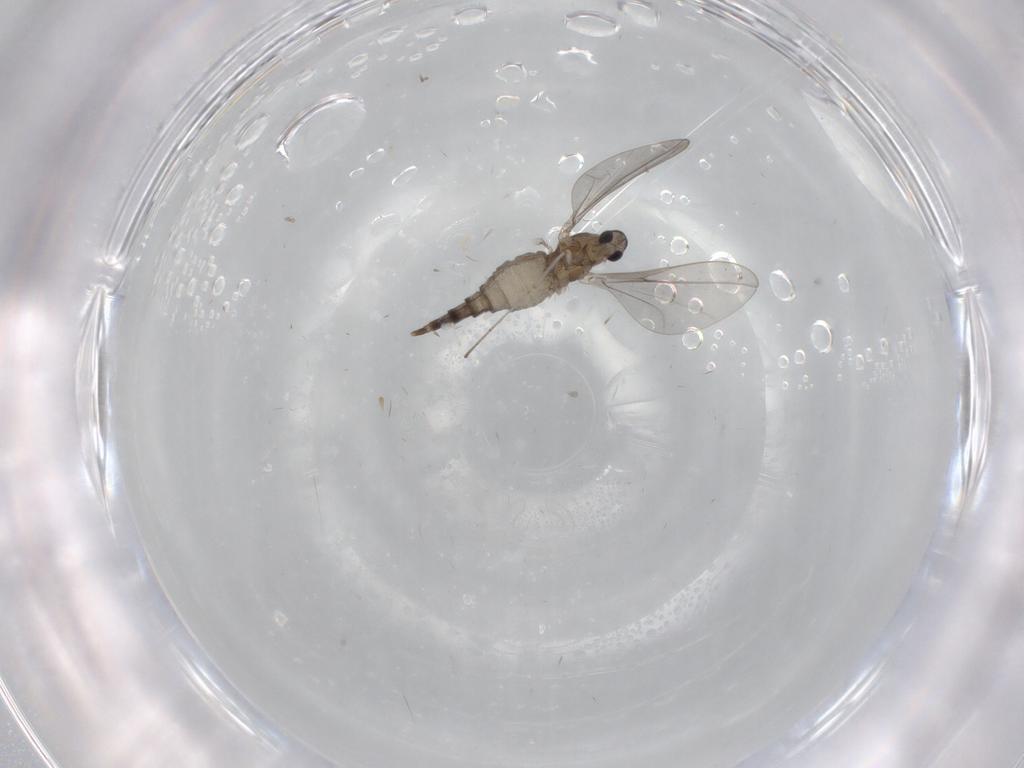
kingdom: Animalia
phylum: Arthropoda
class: Insecta
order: Diptera
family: Cecidomyiidae
